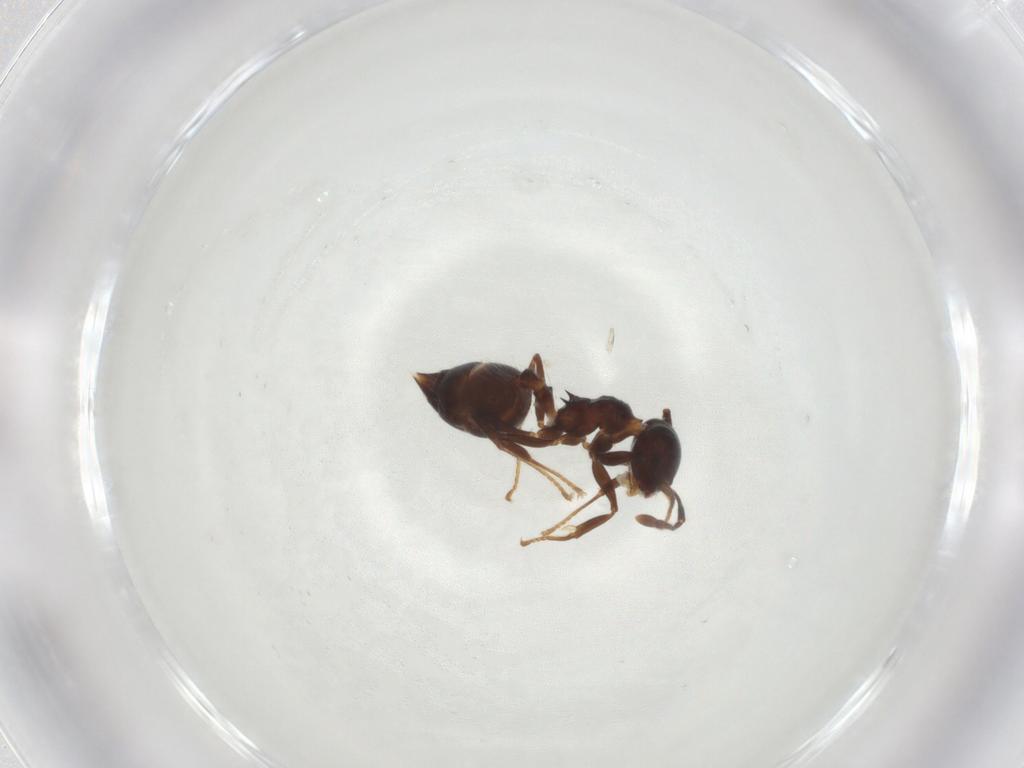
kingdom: Animalia
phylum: Arthropoda
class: Insecta
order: Hymenoptera
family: Formicidae
